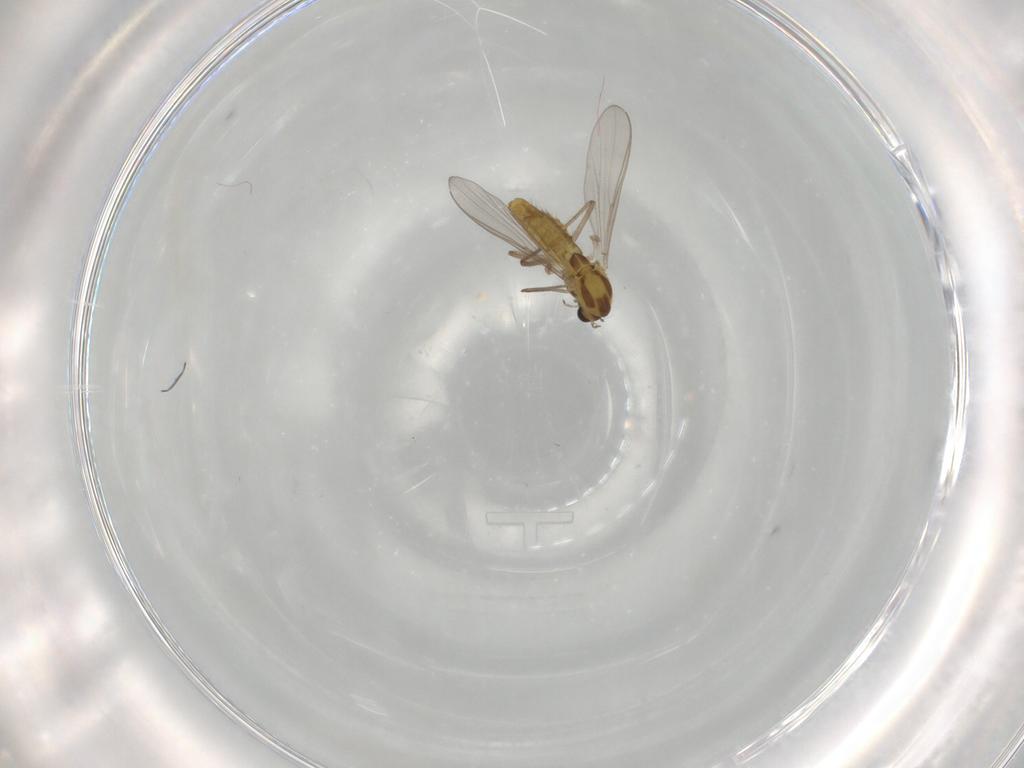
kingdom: Animalia
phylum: Arthropoda
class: Insecta
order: Diptera
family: Chironomidae
